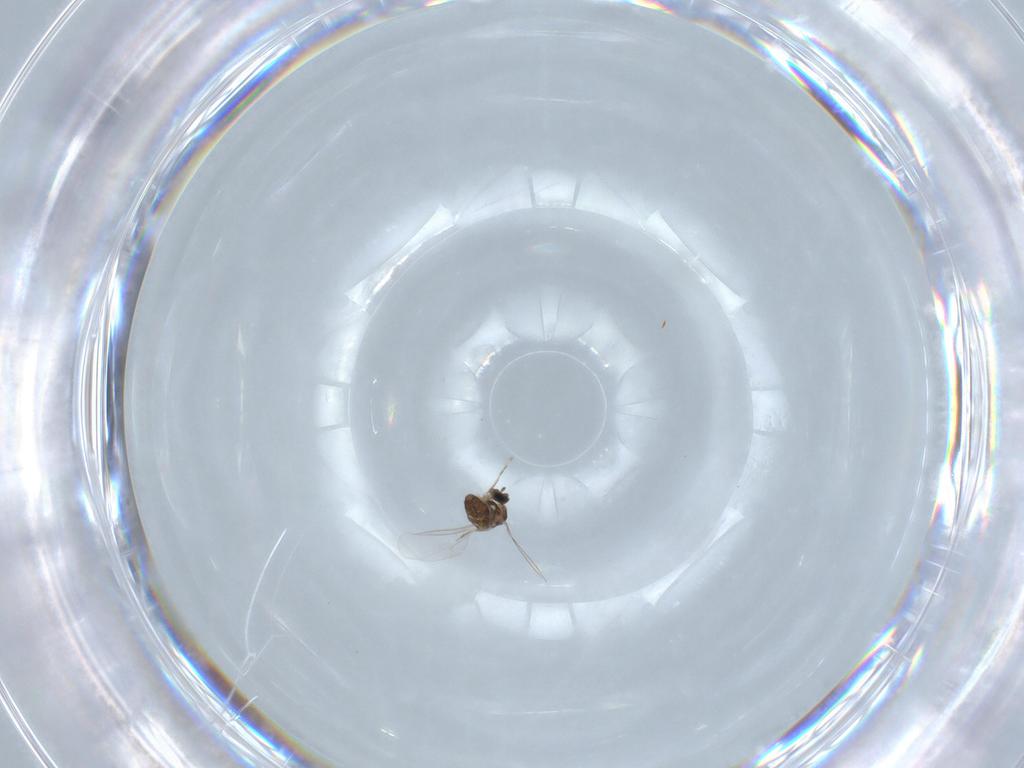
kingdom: Animalia
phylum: Arthropoda
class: Insecta
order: Diptera
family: Cecidomyiidae
